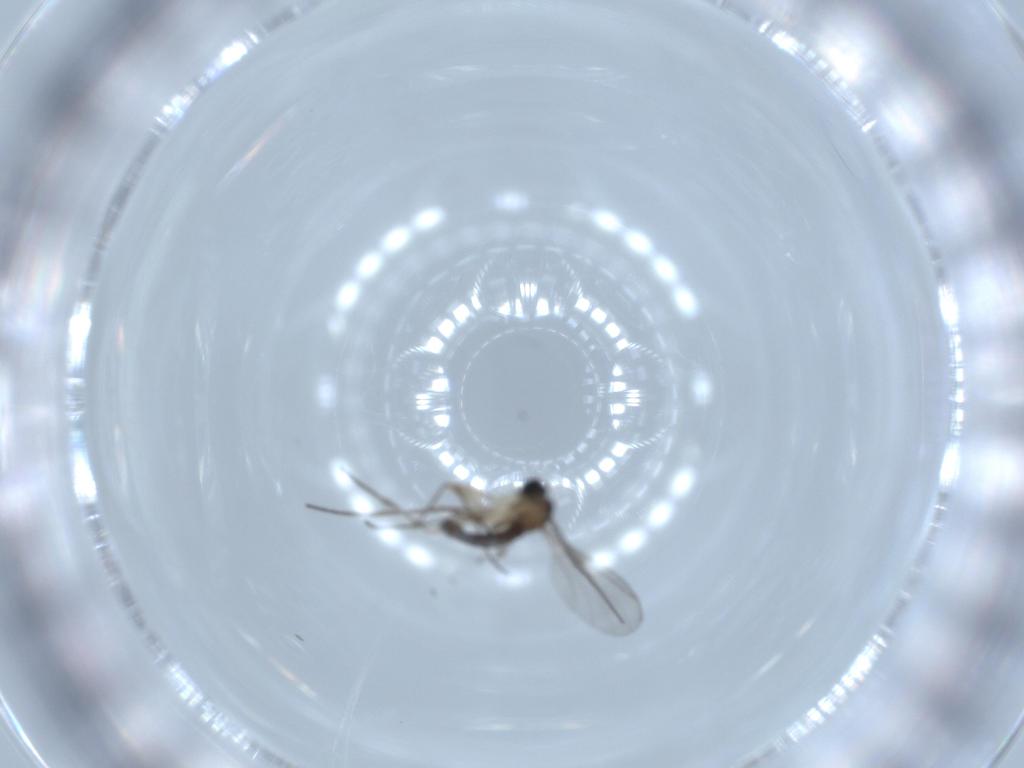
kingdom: Animalia
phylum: Arthropoda
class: Insecta
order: Diptera
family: Sciaridae
